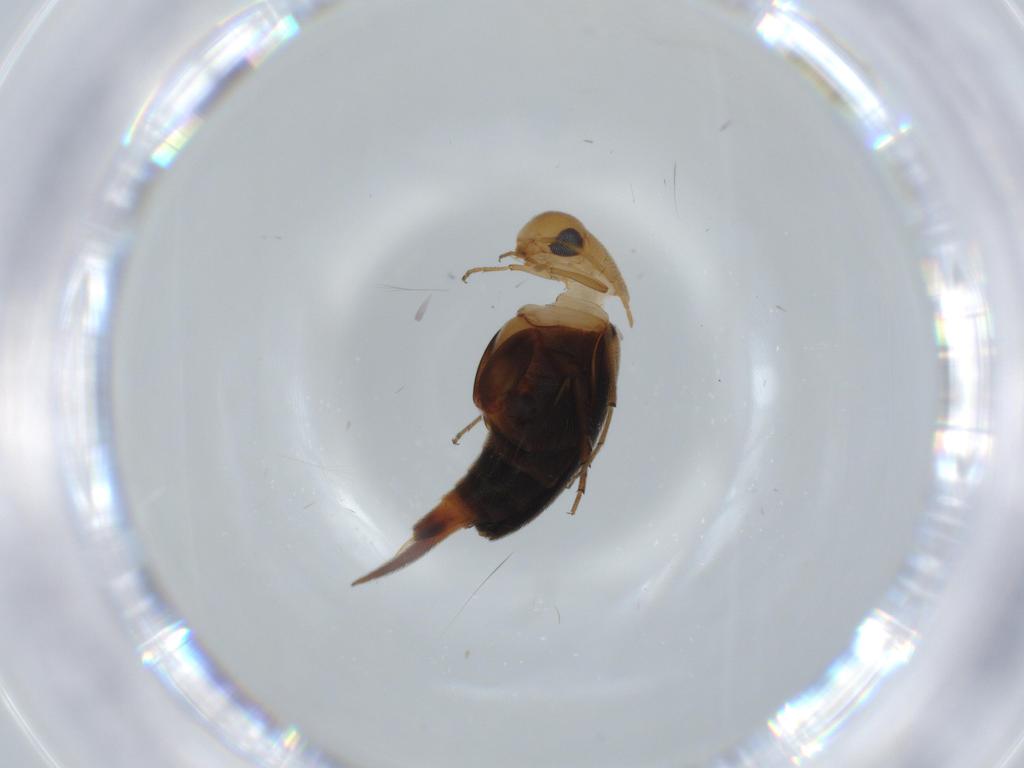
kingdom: Animalia
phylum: Arthropoda
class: Insecta
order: Coleoptera
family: Mordellidae
